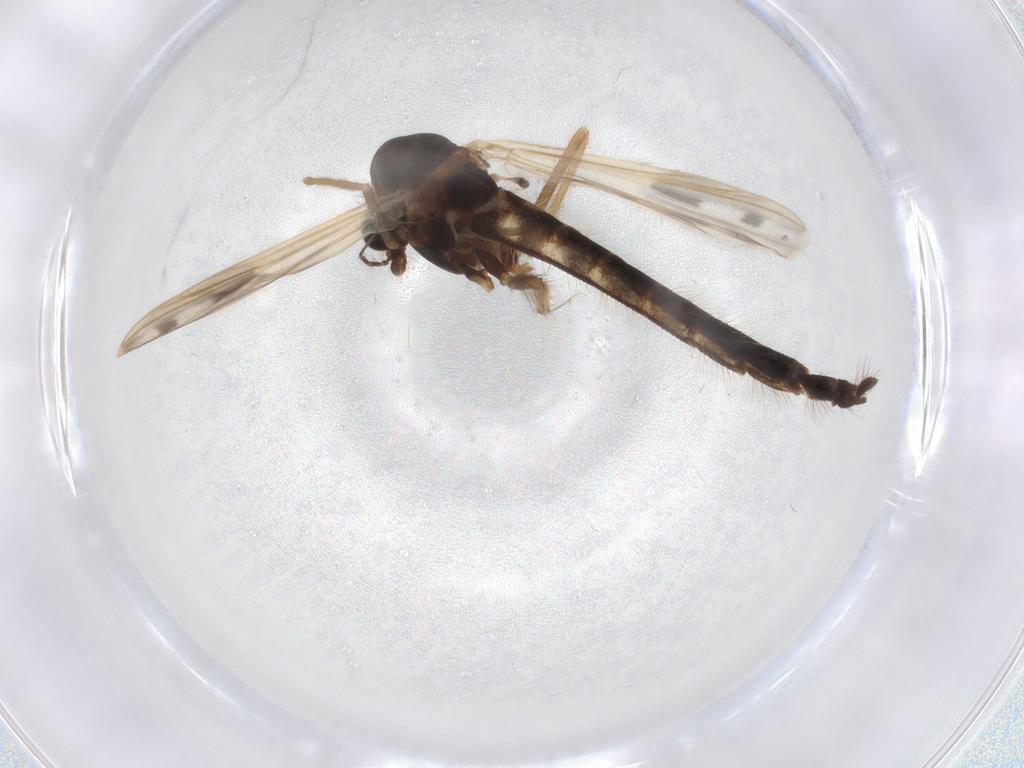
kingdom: Animalia
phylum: Arthropoda
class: Insecta
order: Diptera
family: Chironomidae
